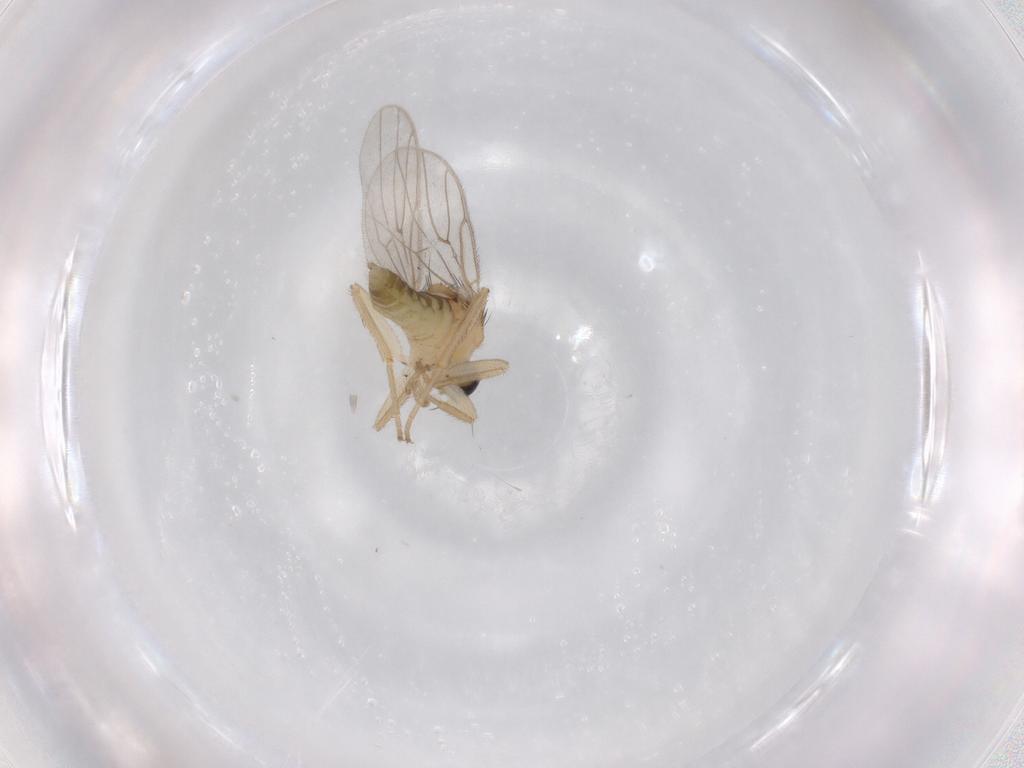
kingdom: Animalia
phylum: Arthropoda
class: Insecta
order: Diptera
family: Hybotidae
